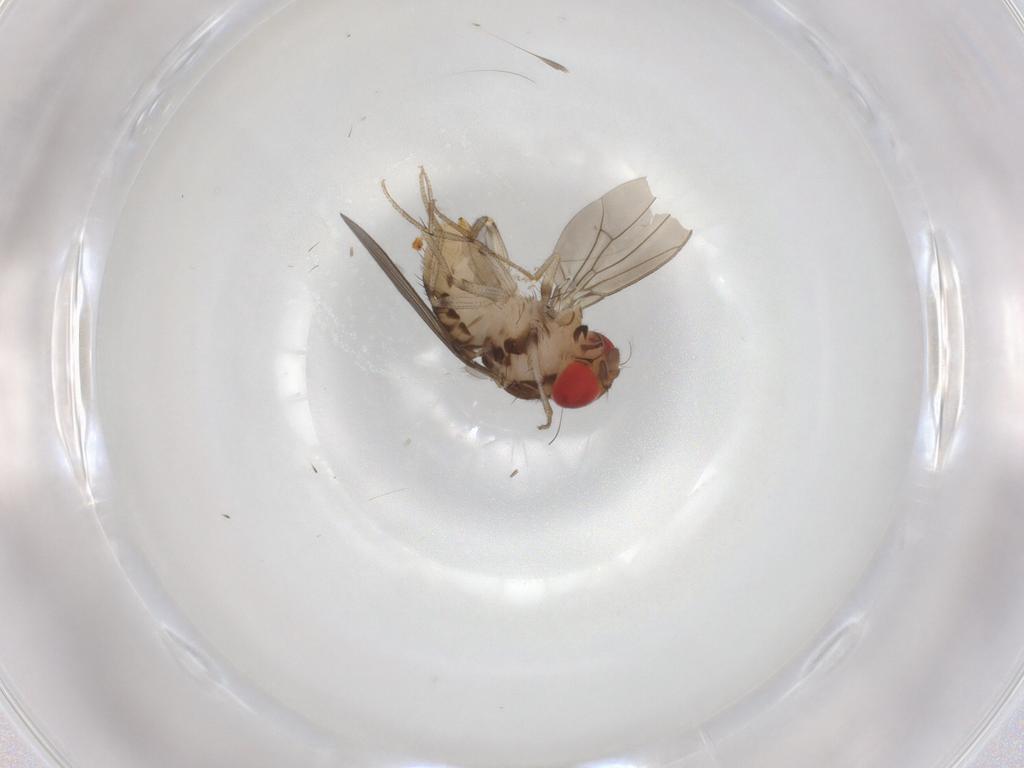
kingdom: Animalia
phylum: Arthropoda
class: Insecta
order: Diptera
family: Drosophilidae
